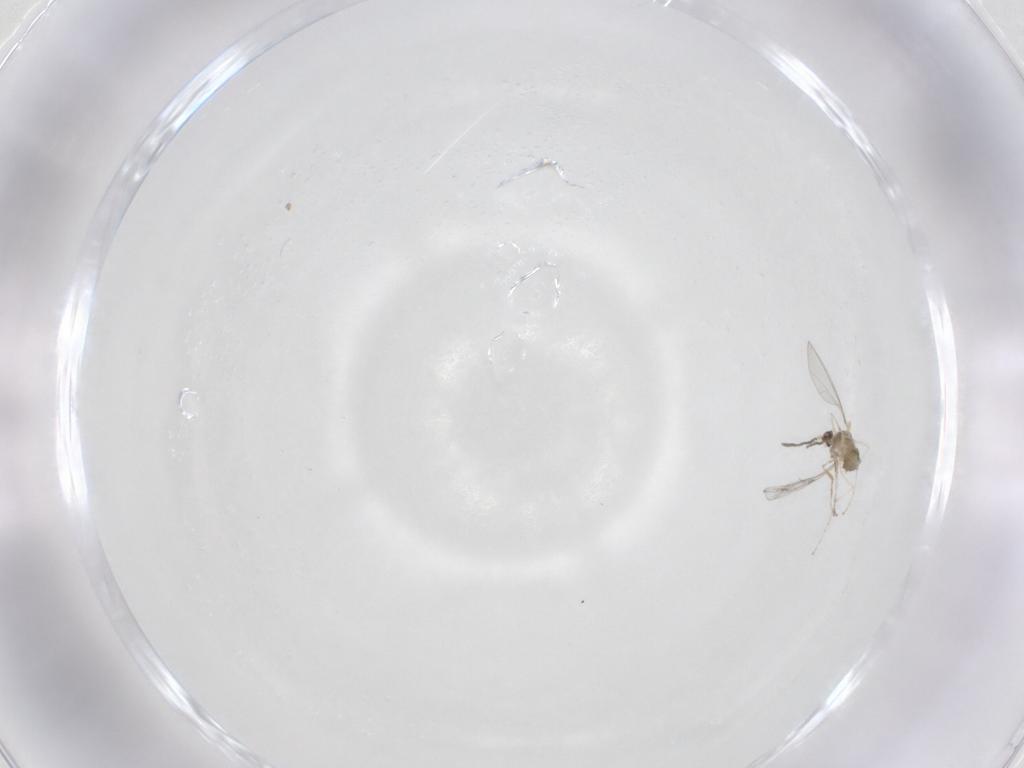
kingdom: Animalia
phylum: Arthropoda
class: Insecta
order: Diptera
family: Cecidomyiidae
